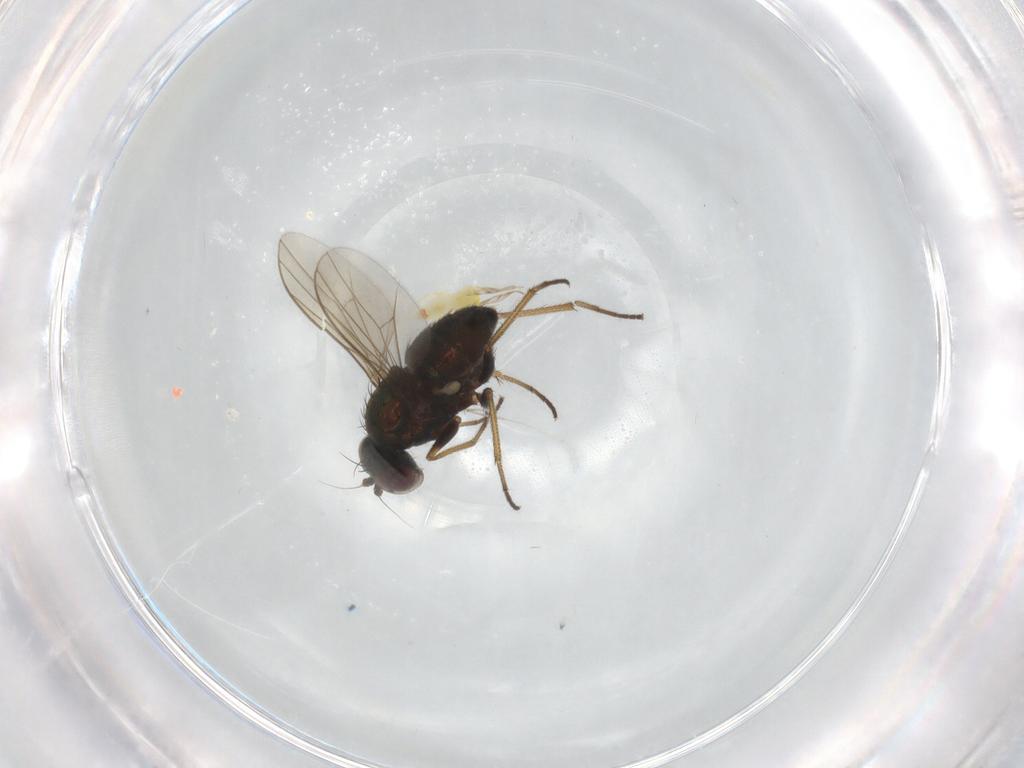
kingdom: Animalia
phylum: Arthropoda
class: Insecta
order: Diptera
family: Dolichopodidae
